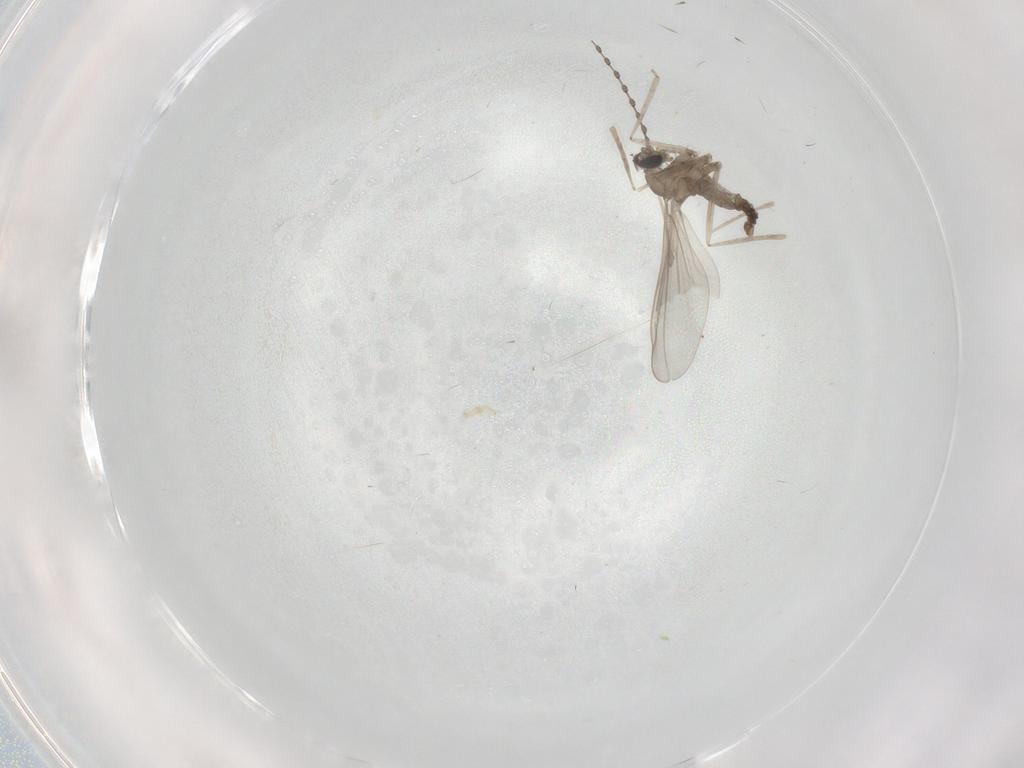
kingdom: Animalia
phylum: Arthropoda
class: Insecta
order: Diptera
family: Cecidomyiidae
